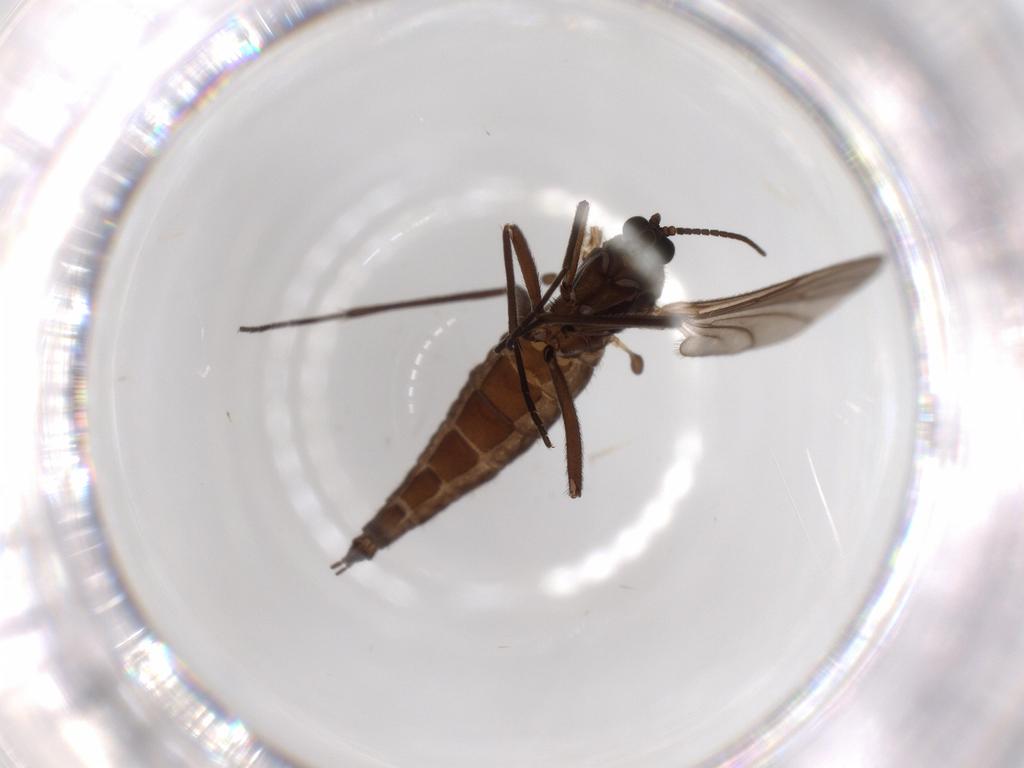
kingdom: Animalia
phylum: Arthropoda
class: Insecta
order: Diptera
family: Sciaridae
